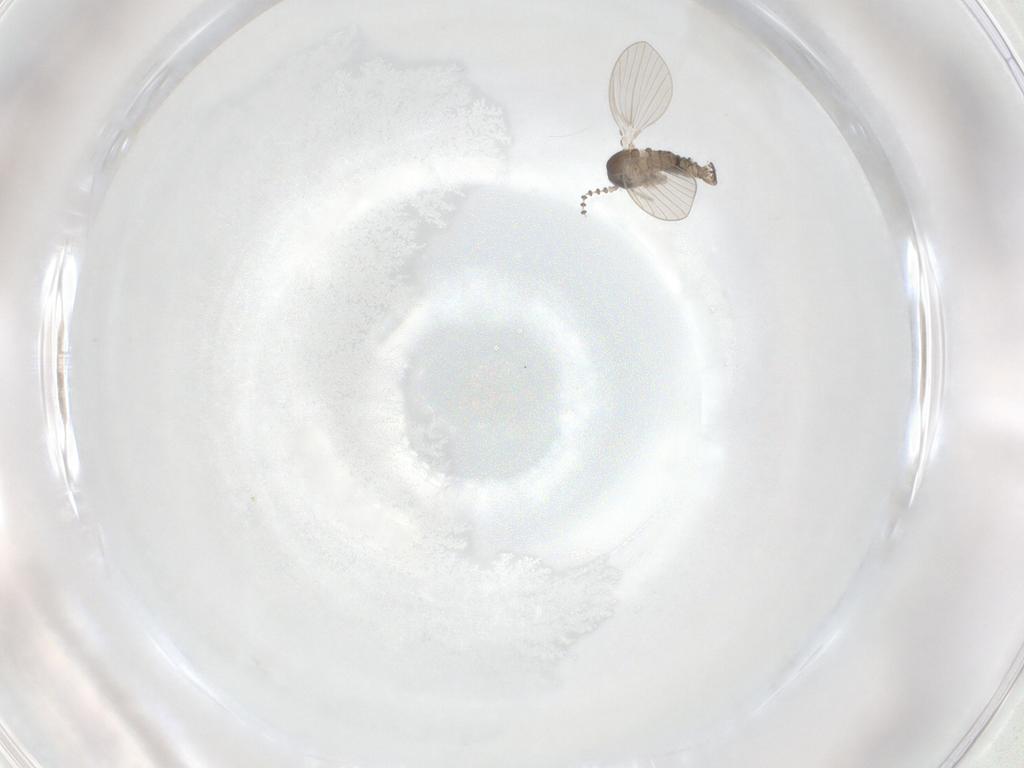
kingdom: Animalia
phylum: Arthropoda
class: Insecta
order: Diptera
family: Psychodidae
